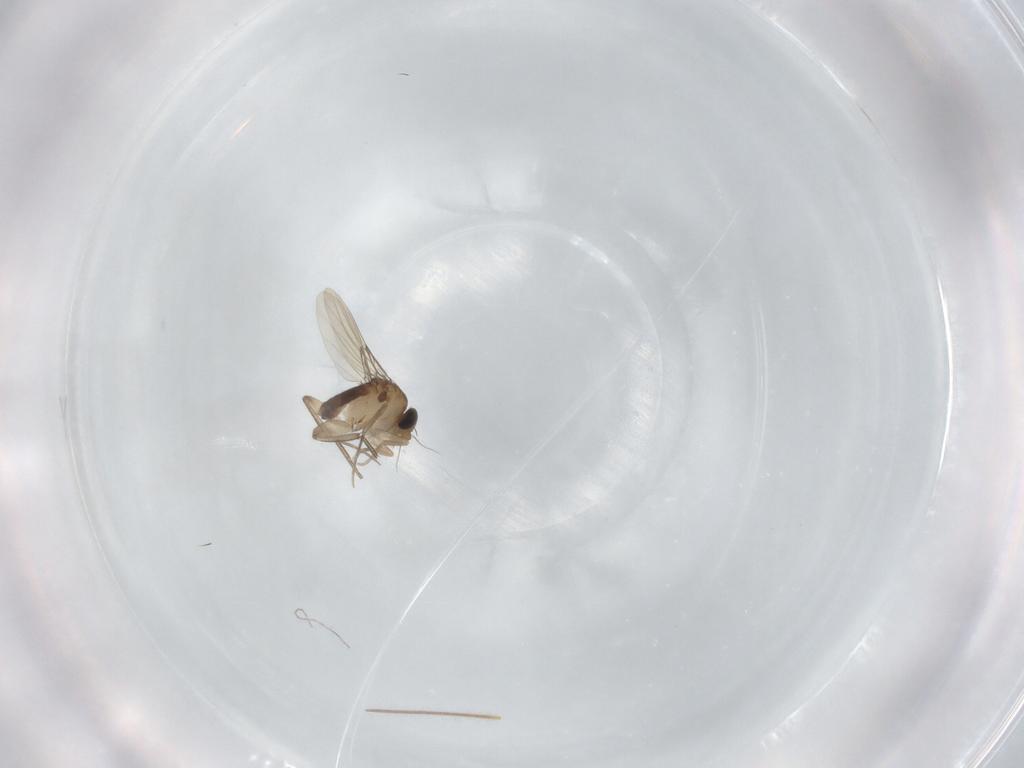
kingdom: Animalia
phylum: Arthropoda
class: Insecta
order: Diptera
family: Phoridae
